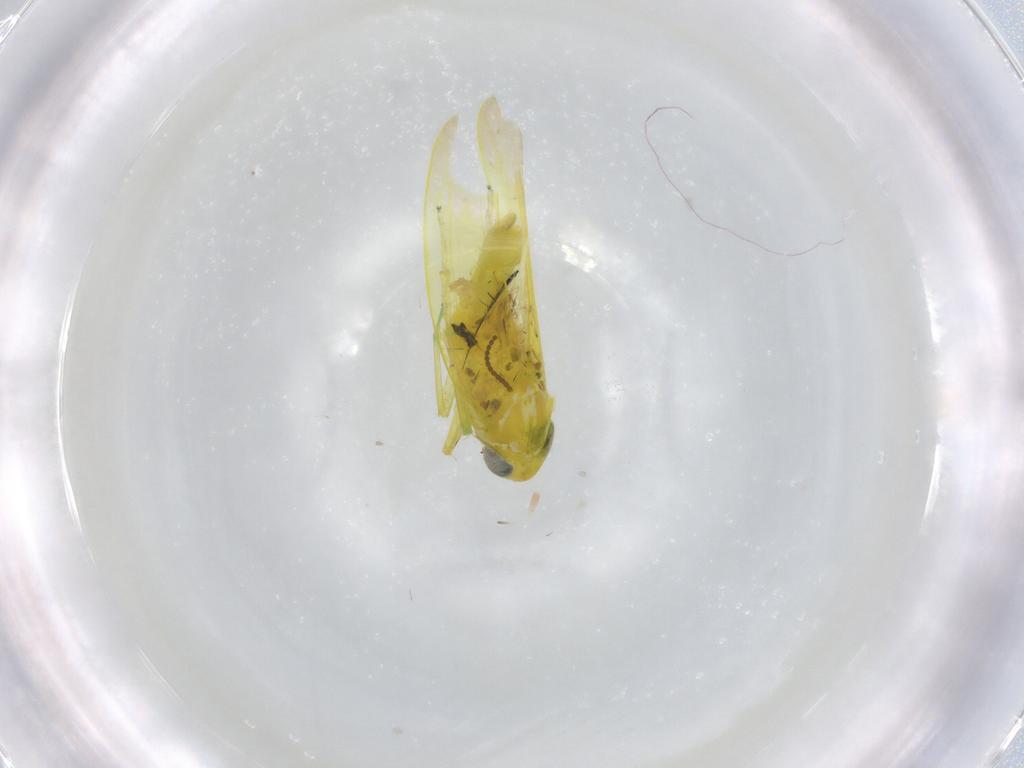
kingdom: Animalia
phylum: Arthropoda
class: Insecta
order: Hemiptera
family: Cicadellidae
